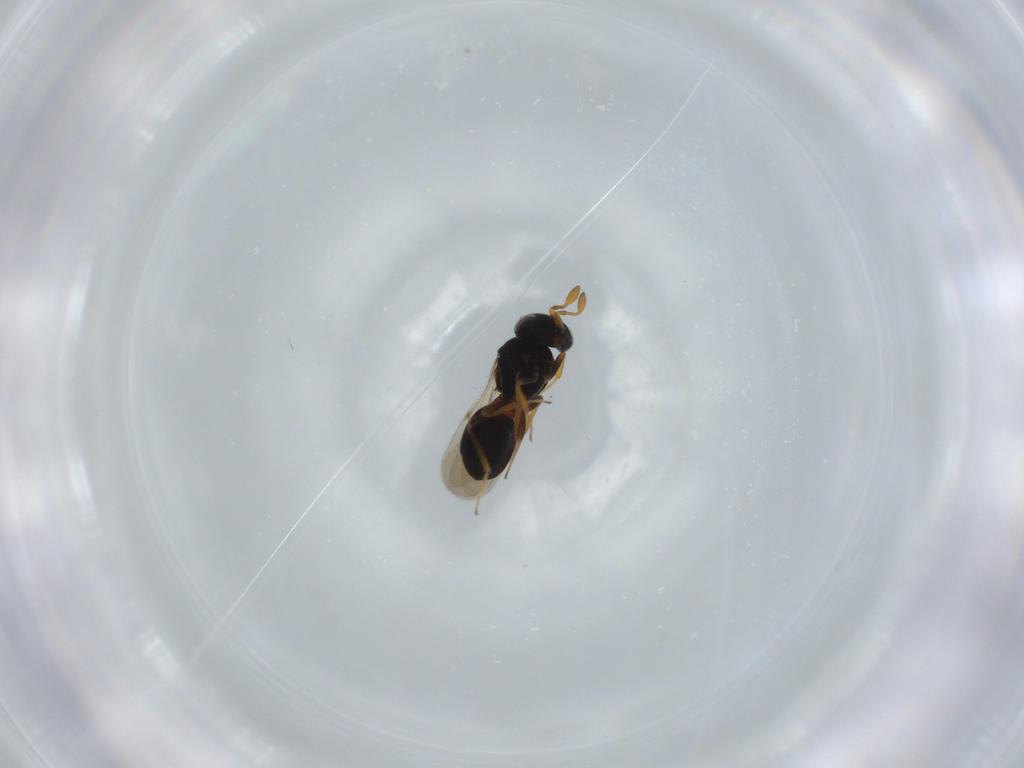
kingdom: Animalia
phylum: Arthropoda
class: Insecta
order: Hymenoptera
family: Scelionidae
